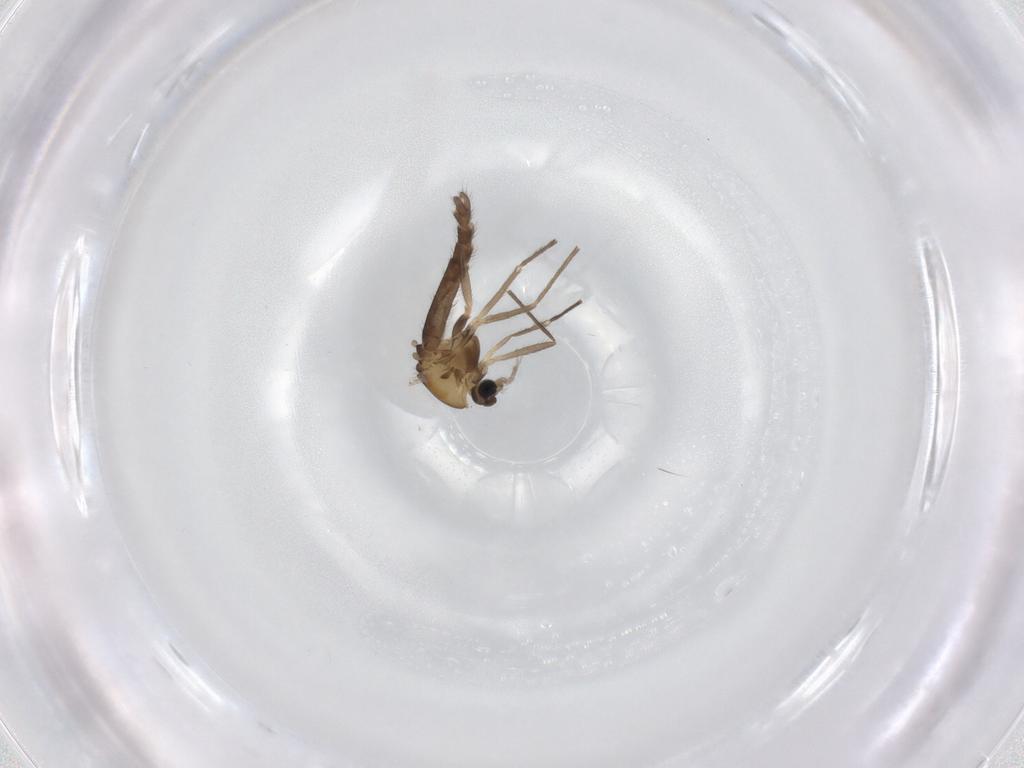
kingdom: Animalia
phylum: Arthropoda
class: Insecta
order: Diptera
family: Chironomidae
